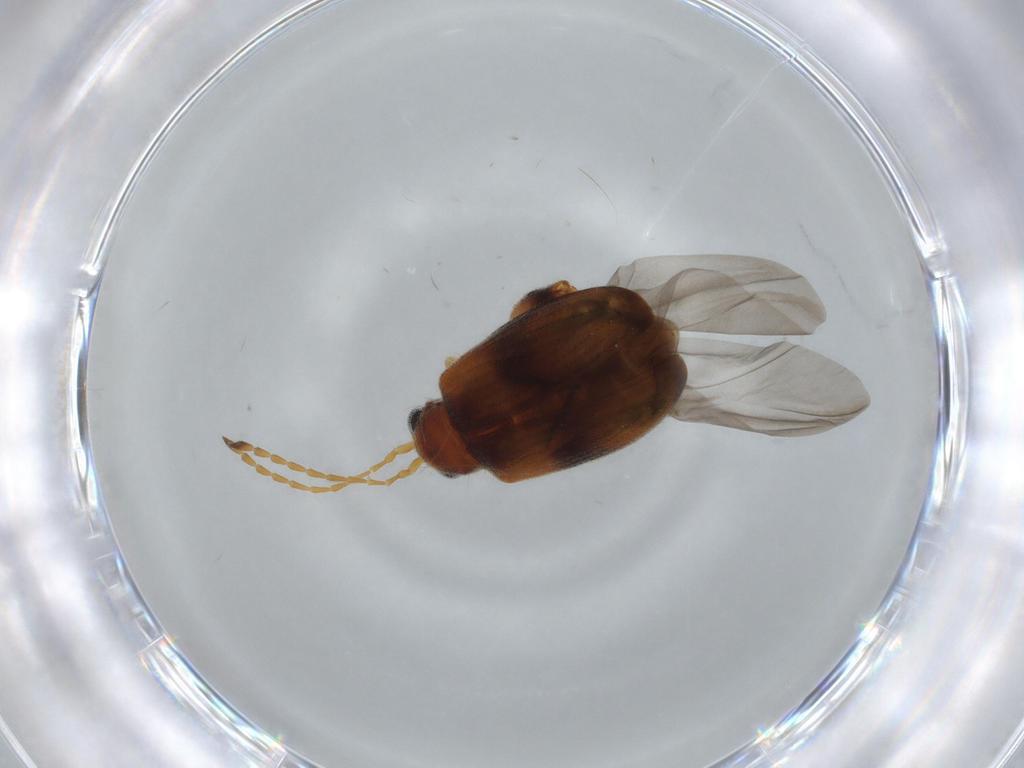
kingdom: Animalia
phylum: Arthropoda
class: Insecta
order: Coleoptera
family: Chrysomelidae
